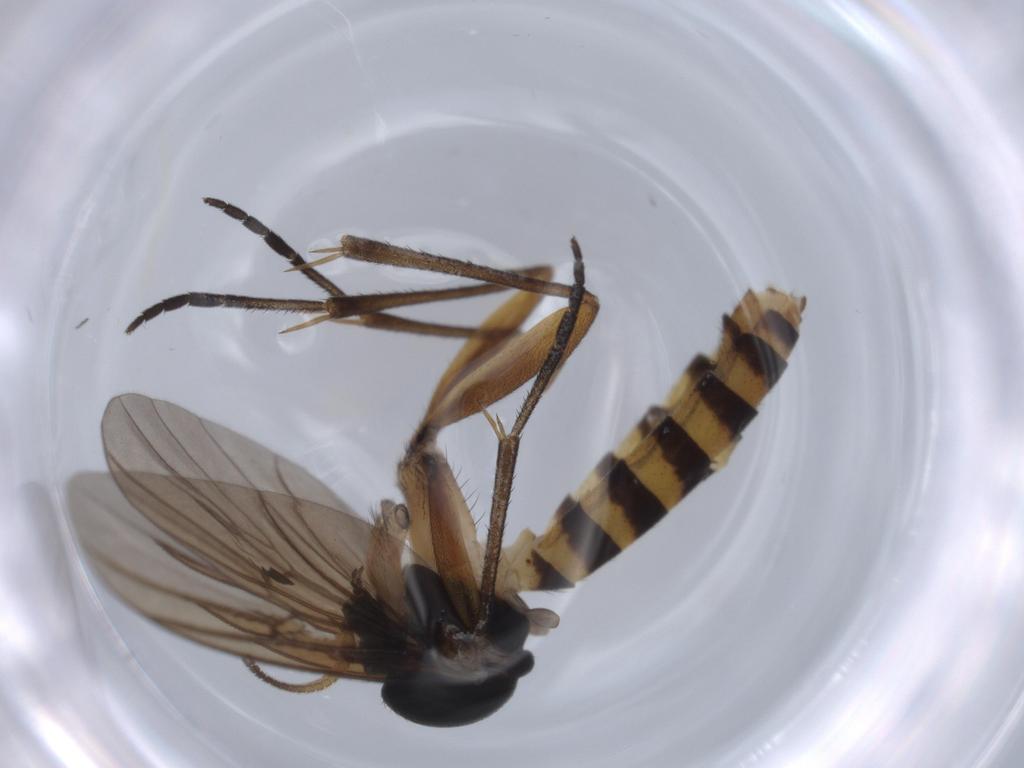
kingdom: Animalia
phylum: Arthropoda
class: Insecta
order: Diptera
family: Mycetophilidae
